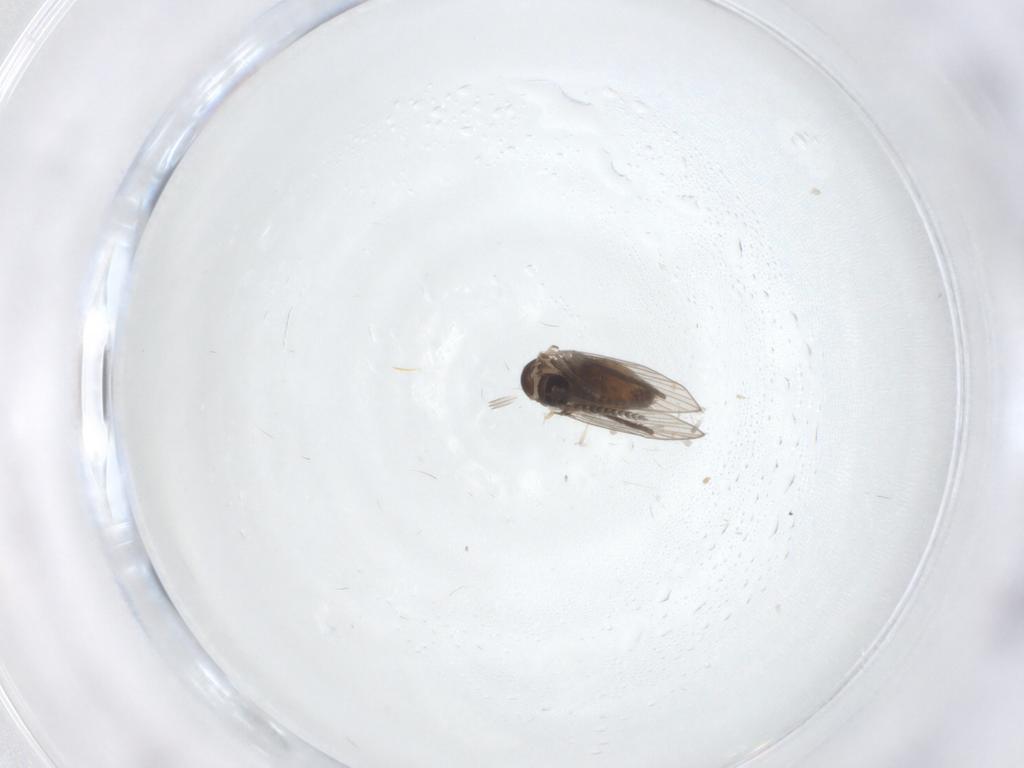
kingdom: Animalia
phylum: Arthropoda
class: Insecta
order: Diptera
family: Psychodidae
